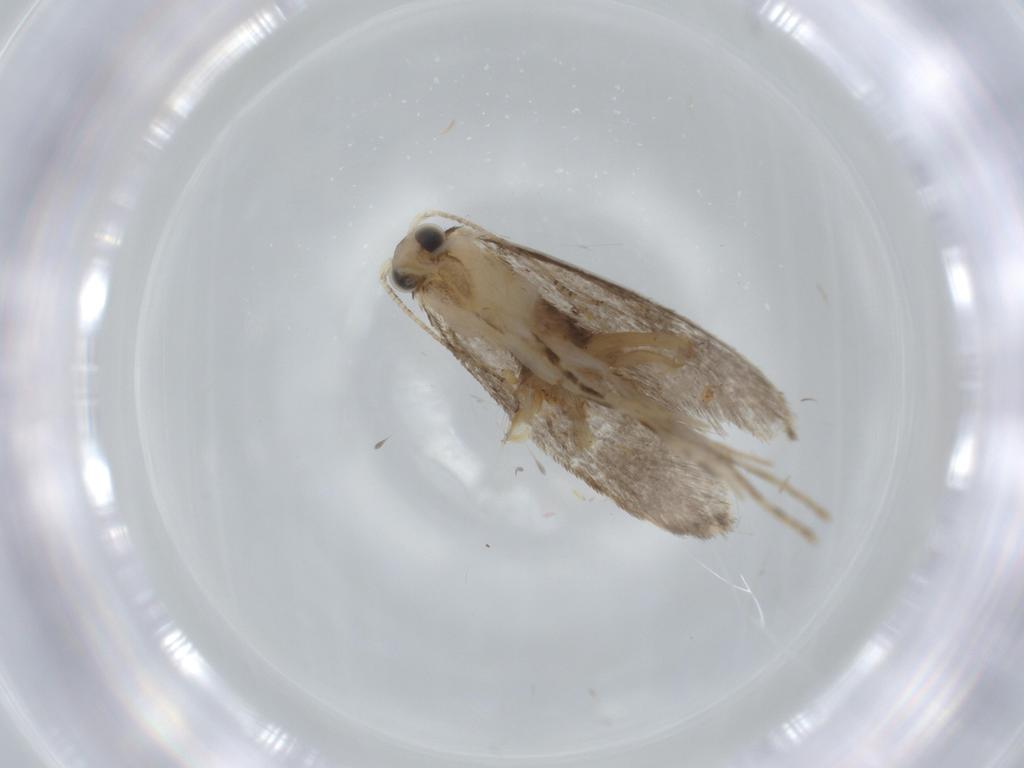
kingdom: Animalia
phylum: Arthropoda
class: Insecta
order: Lepidoptera
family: Tineidae
